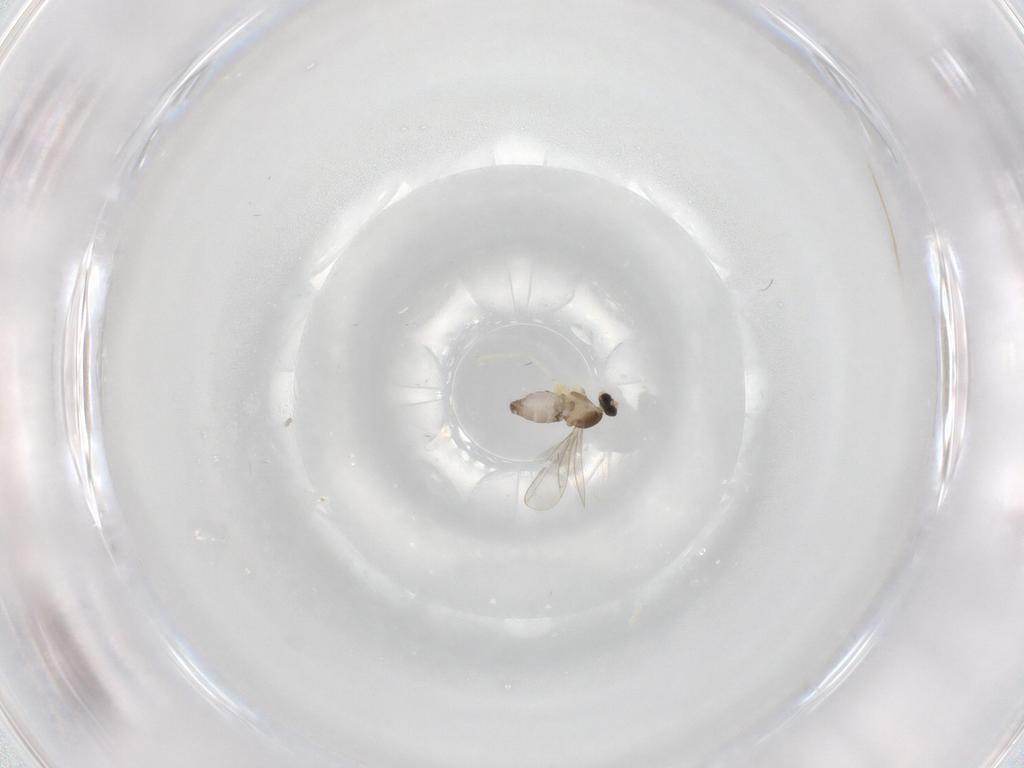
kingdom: Animalia
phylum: Arthropoda
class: Insecta
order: Diptera
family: Cecidomyiidae
